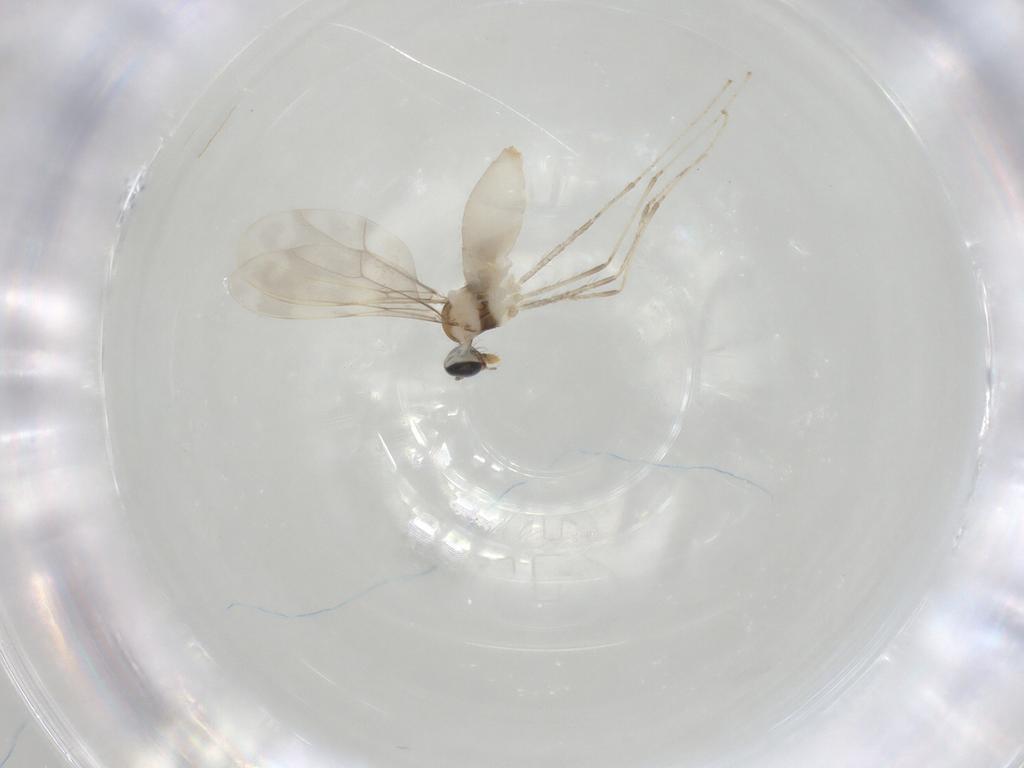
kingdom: Animalia
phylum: Arthropoda
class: Insecta
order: Diptera
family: Cecidomyiidae
